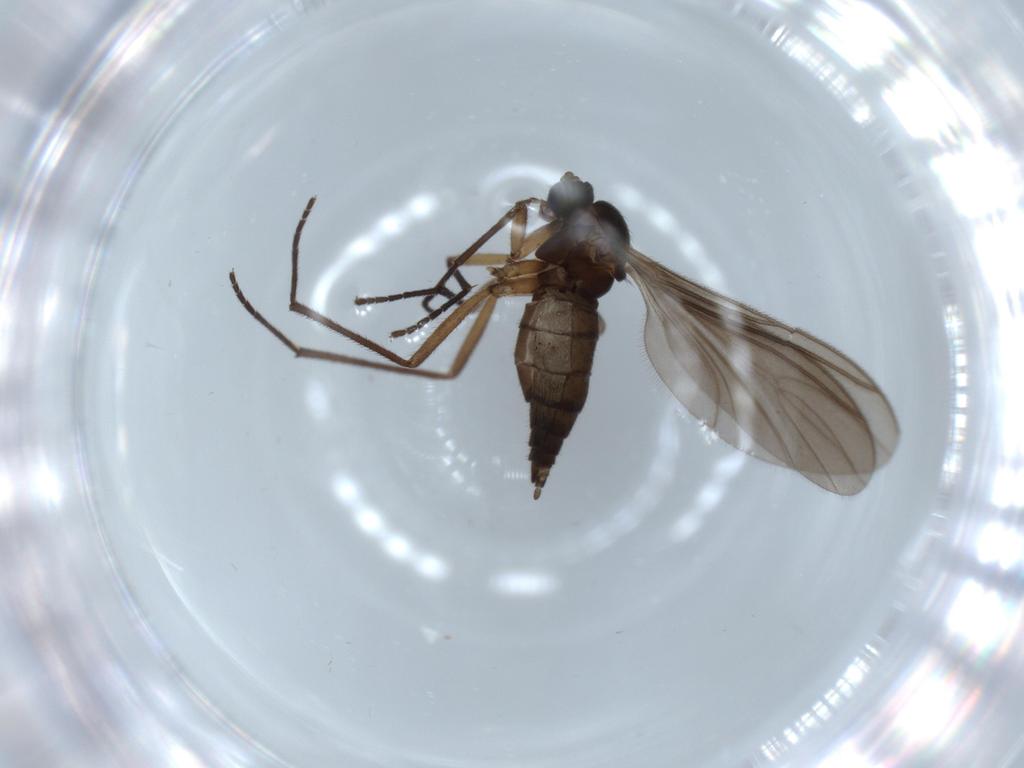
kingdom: Animalia
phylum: Arthropoda
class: Insecta
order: Diptera
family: Sciaridae
